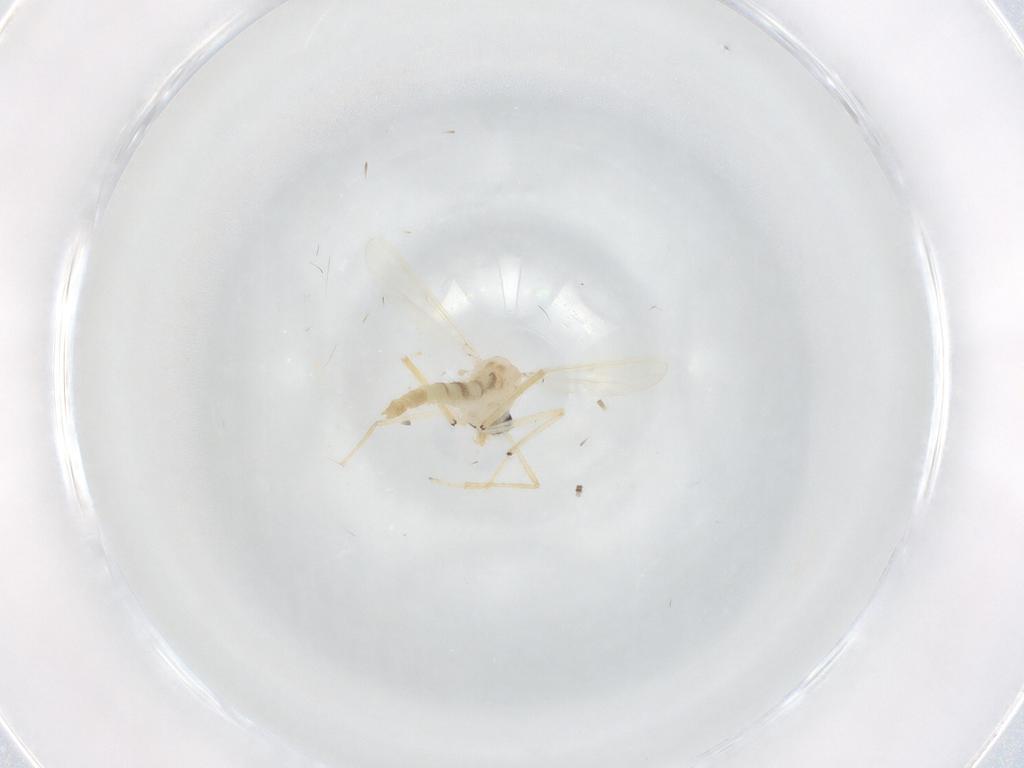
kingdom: Animalia
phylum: Arthropoda
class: Insecta
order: Diptera
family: Chironomidae
